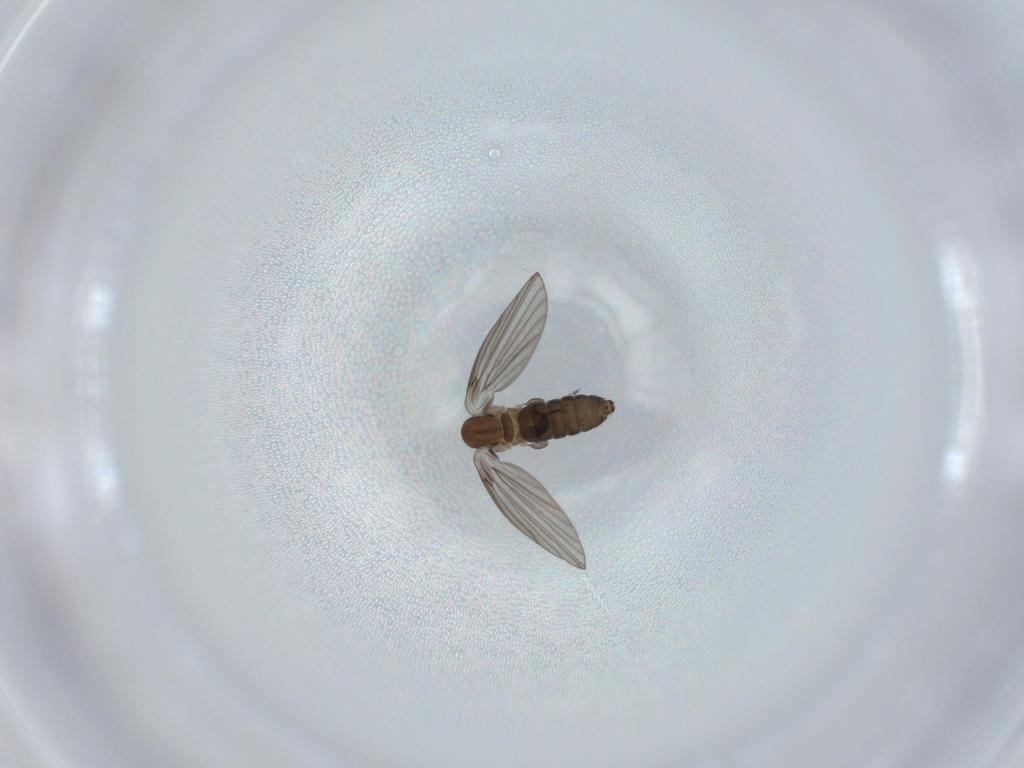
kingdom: Animalia
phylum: Arthropoda
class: Insecta
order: Diptera
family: Psychodidae
